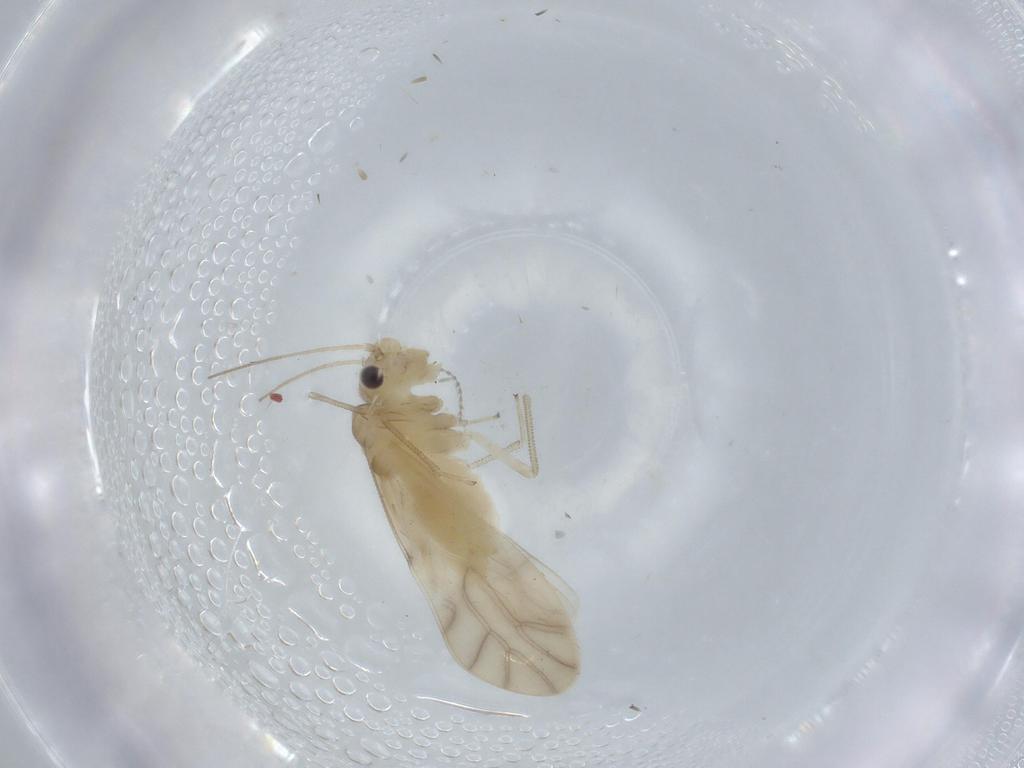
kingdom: Animalia
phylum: Arthropoda
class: Insecta
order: Psocodea
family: Caeciliusidae
